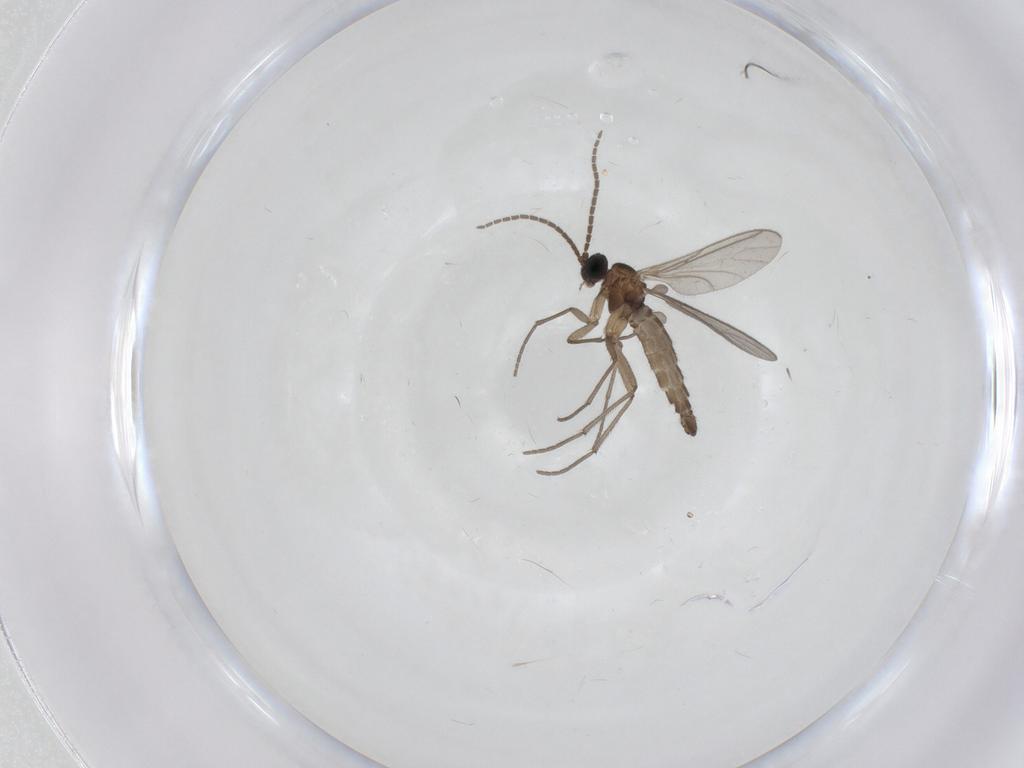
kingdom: Animalia
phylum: Arthropoda
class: Insecta
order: Diptera
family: Sciaridae
